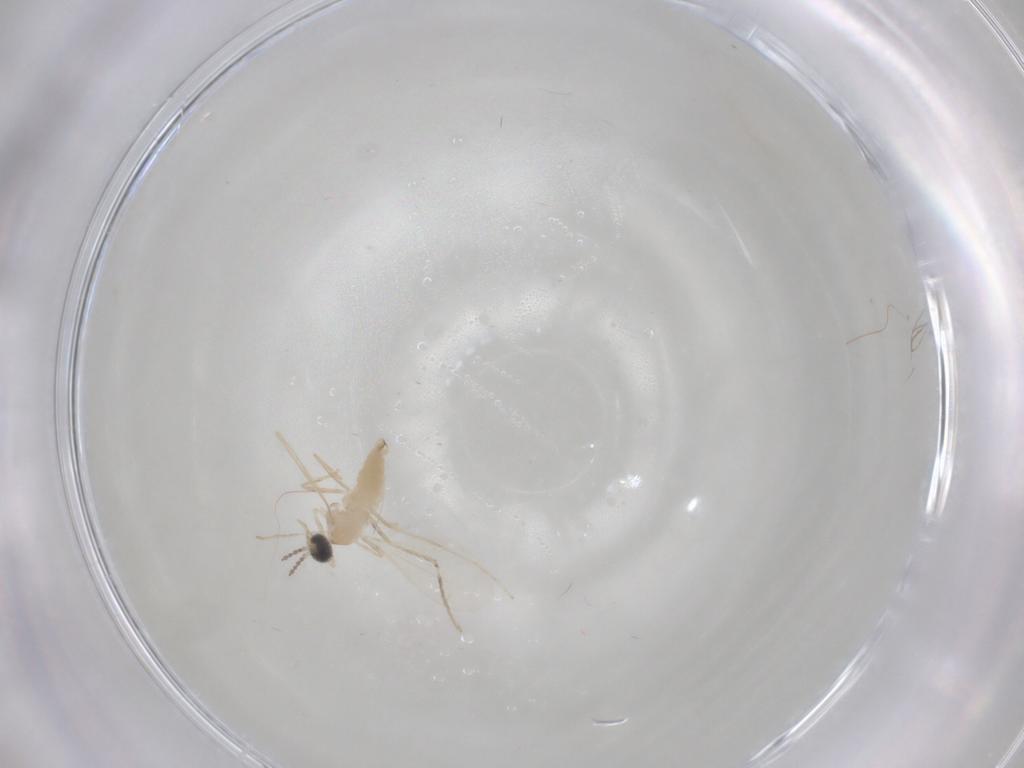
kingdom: Animalia
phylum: Arthropoda
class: Insecta
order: Diptera
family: Cecidomyiidae
